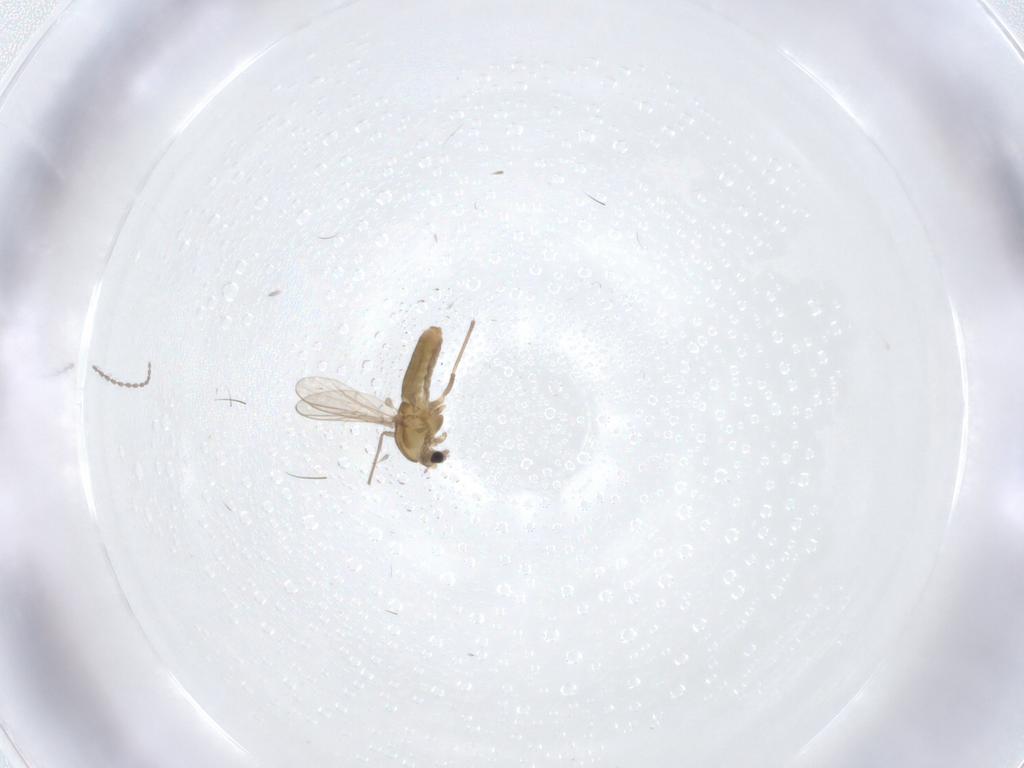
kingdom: Animalia
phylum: Arthropoda
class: Insecta
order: Diptera
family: Cecidomyiidae
